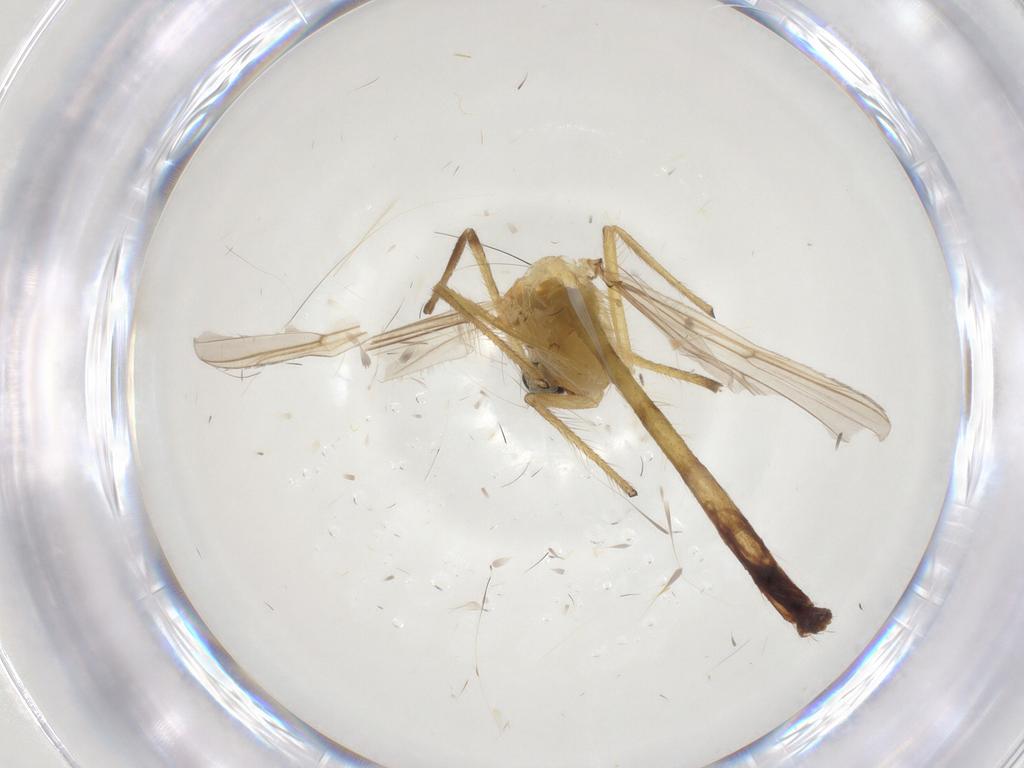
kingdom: Animalia
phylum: Arthropoda
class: Insecta
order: Diptera
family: Chironomidae
